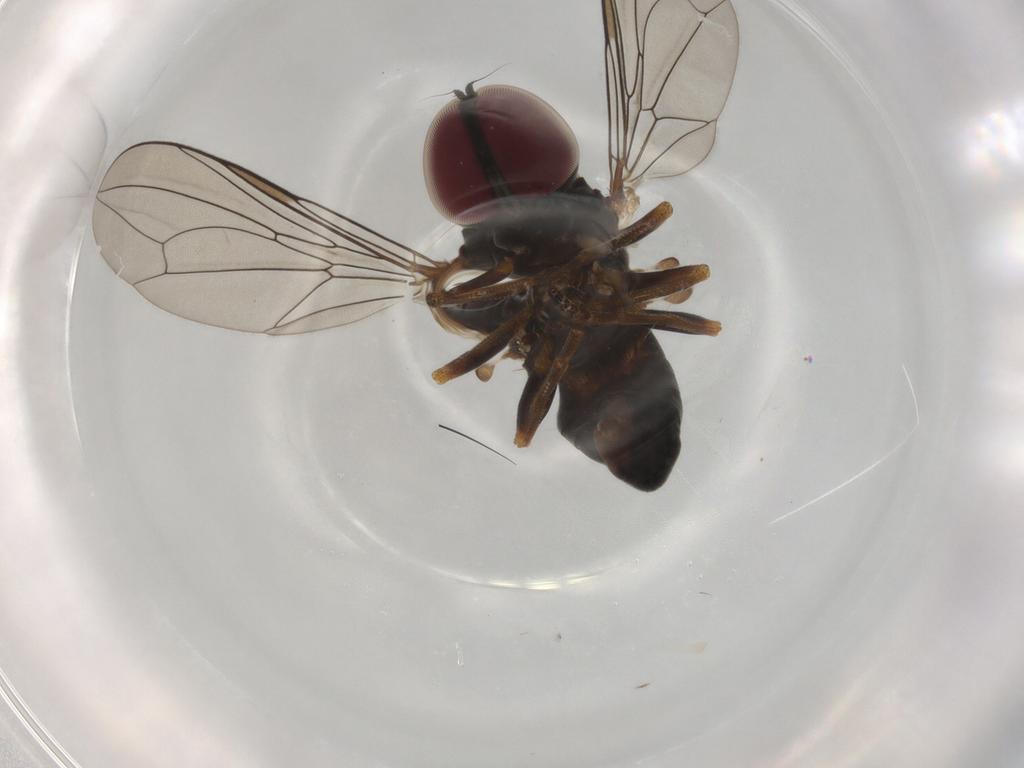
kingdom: Animalia
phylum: Arthropoda
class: Insecta
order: Diptera
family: Pipunculidae
